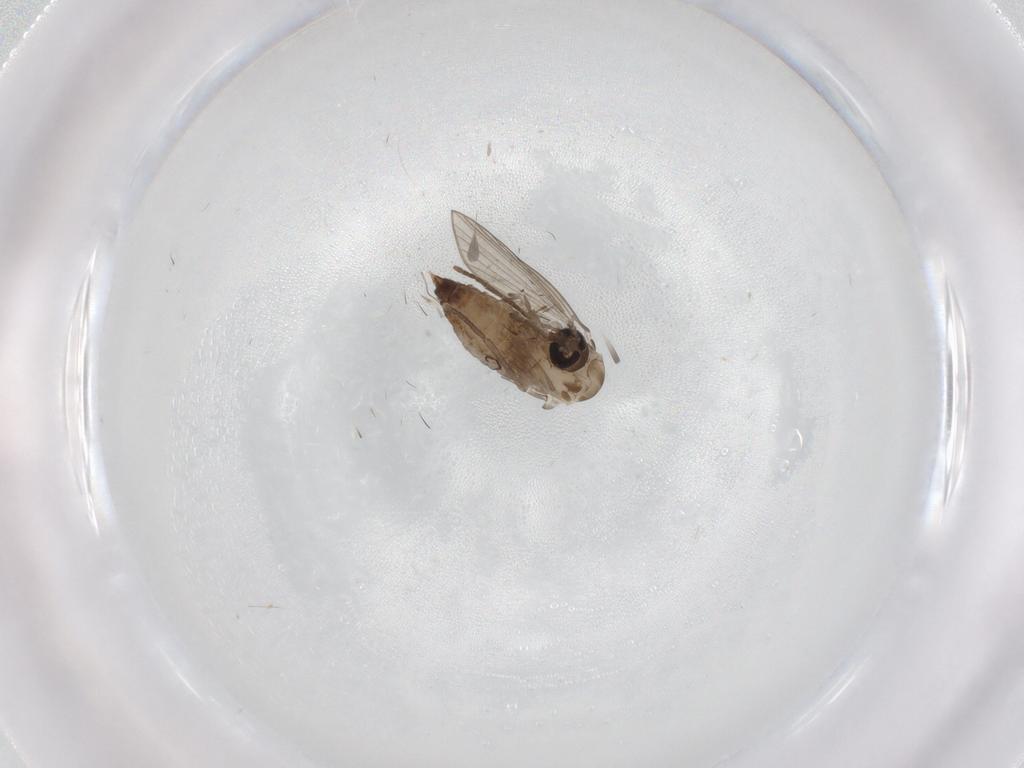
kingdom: Animalia
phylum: Arthropoda
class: Insecta
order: Diptera
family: Psychodidae
